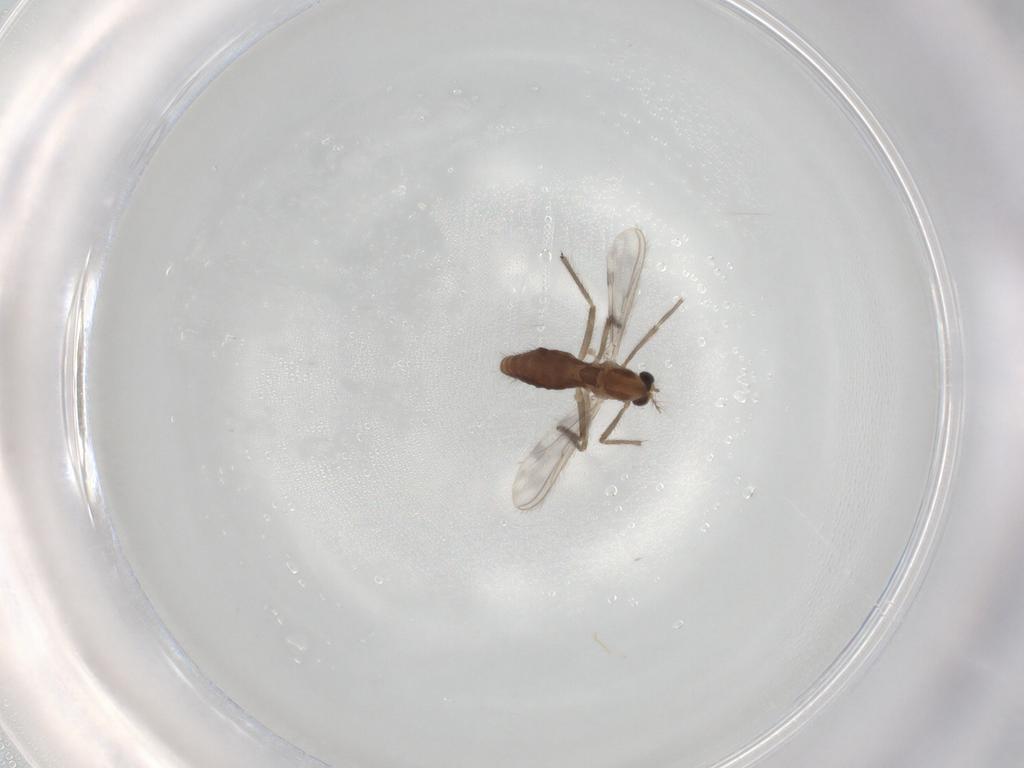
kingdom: Animalia
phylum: Arthropoda
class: Insecta
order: Diptera
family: Chironomidae
